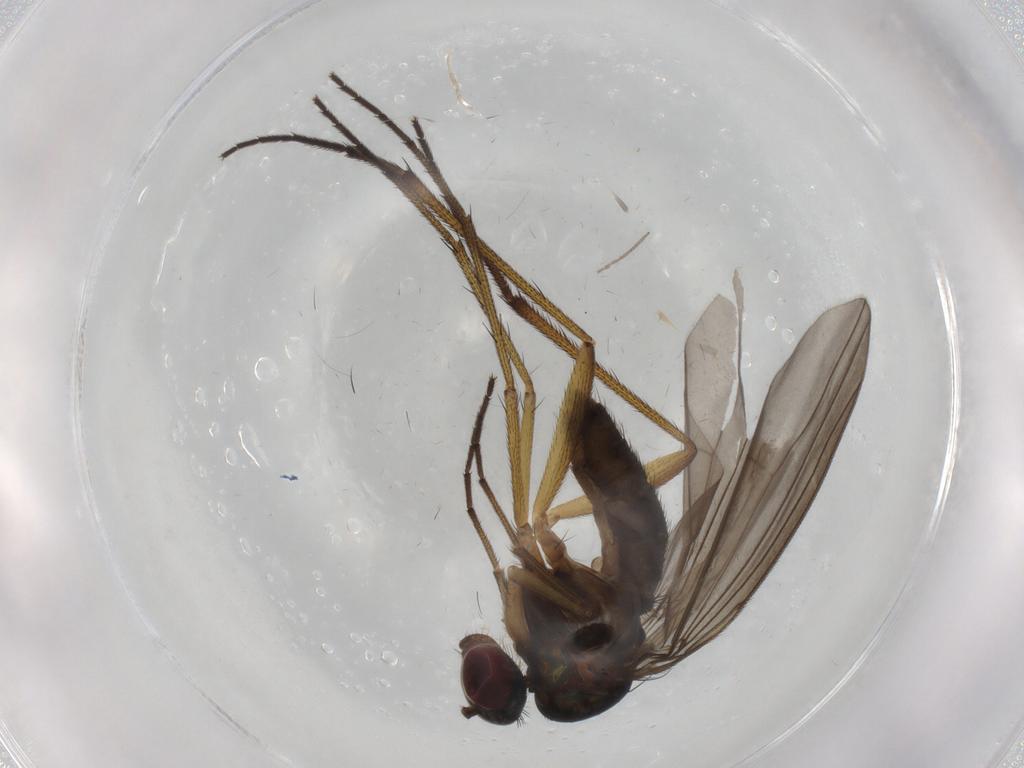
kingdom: Animalia
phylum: Arthropoda
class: Insecta
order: Diptera
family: Dolichopodidae
